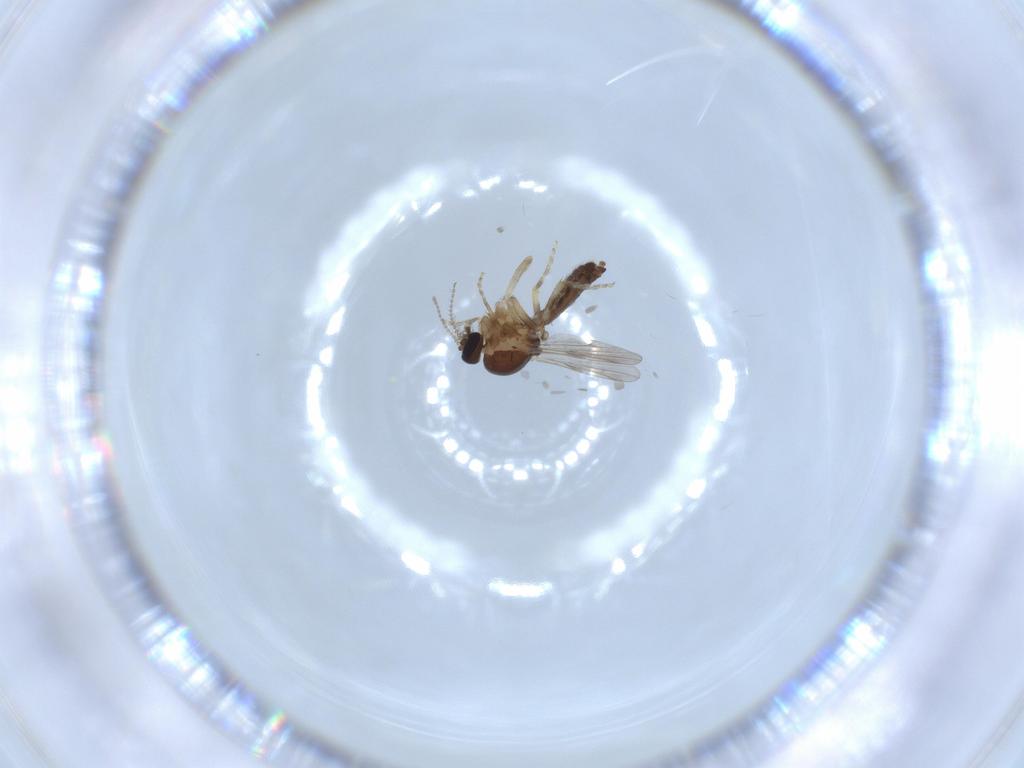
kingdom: Animalia
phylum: Arthropoda
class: Insecta
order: Diptera
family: Ceratopogonidae
